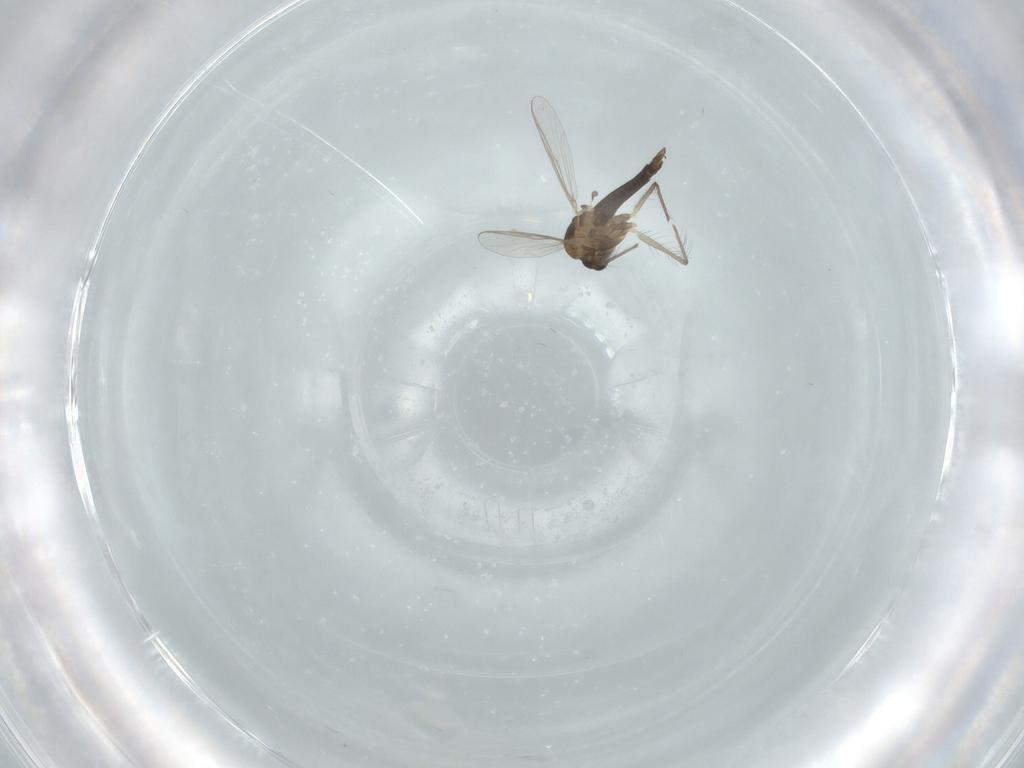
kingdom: Animalia
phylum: Arthropoda
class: Insecta
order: Diptera
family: Chironomidae
